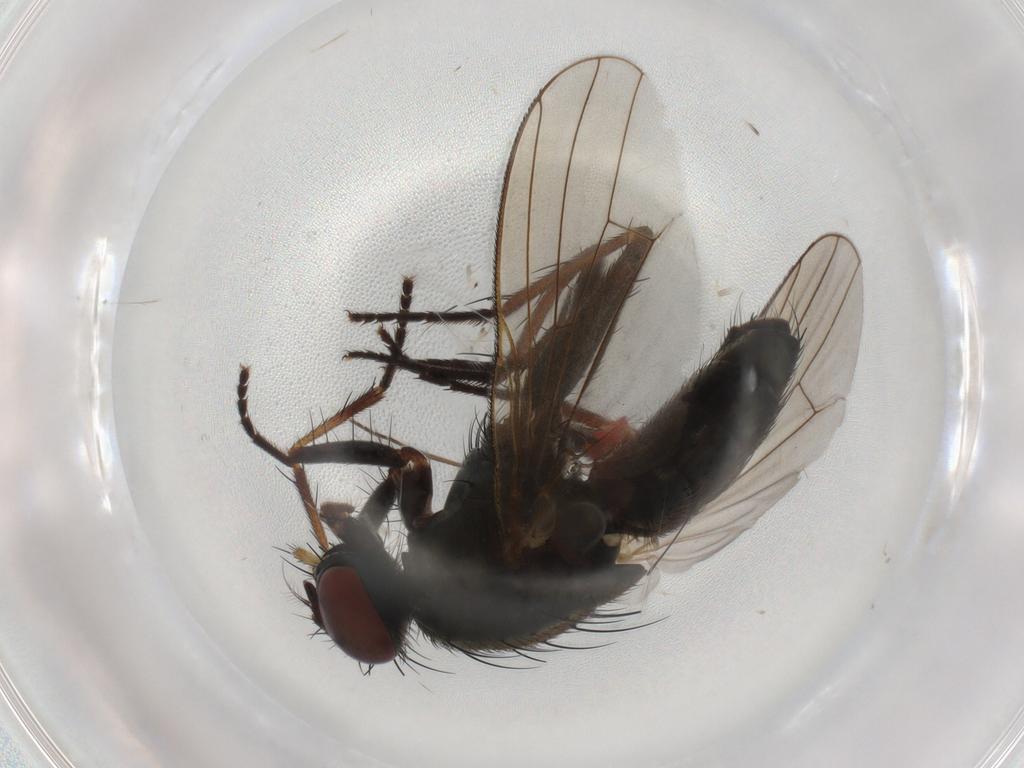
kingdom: Animalia
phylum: Arthropoda
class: Insecta
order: Diptera
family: Muscidae
